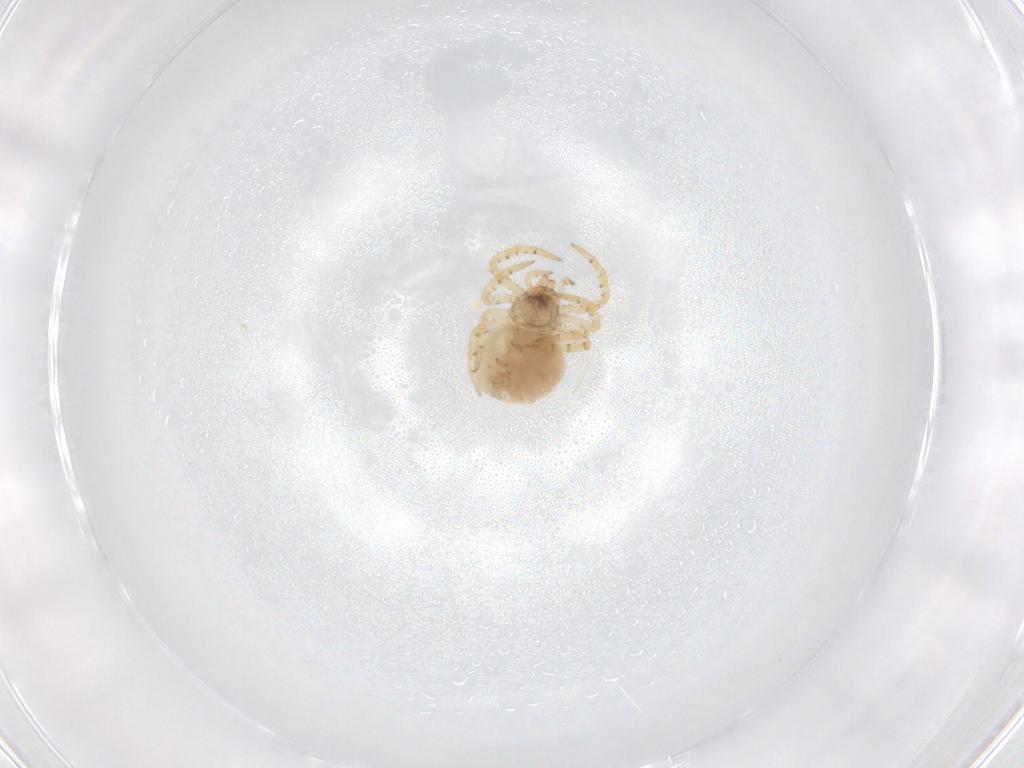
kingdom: Animalia
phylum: Arthropoda
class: Arachnida
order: Araneae
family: Theridiidae
